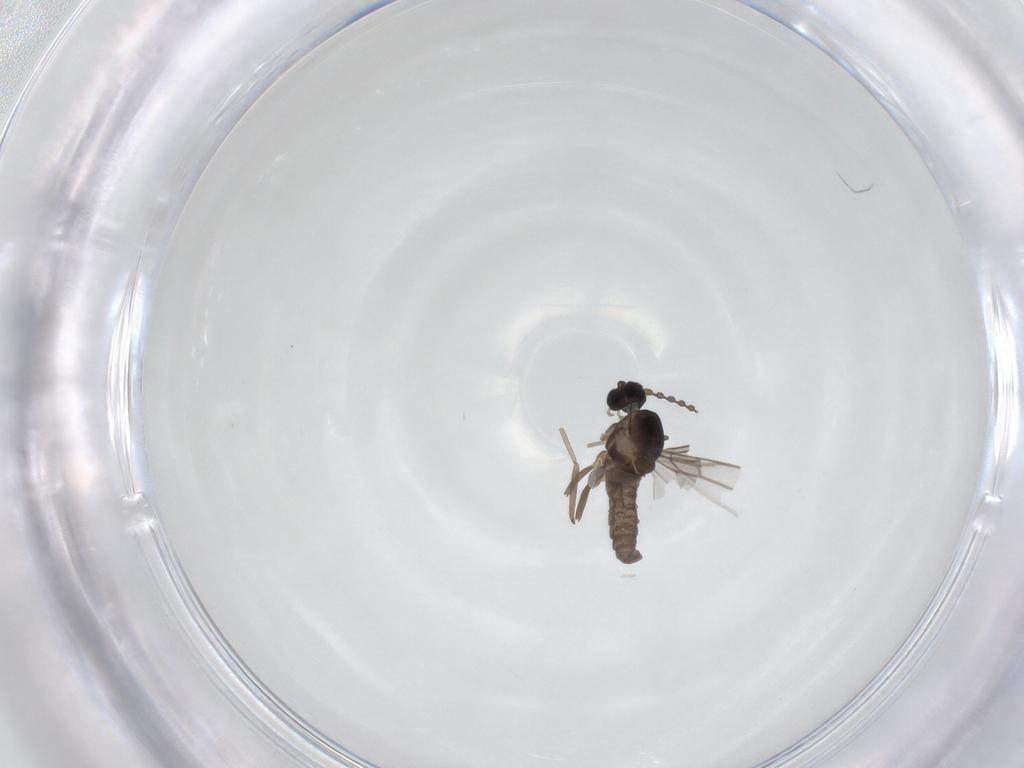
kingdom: Animalia
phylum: Arthropoda
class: Insecta
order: Diptera
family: Cecidomyiidae
